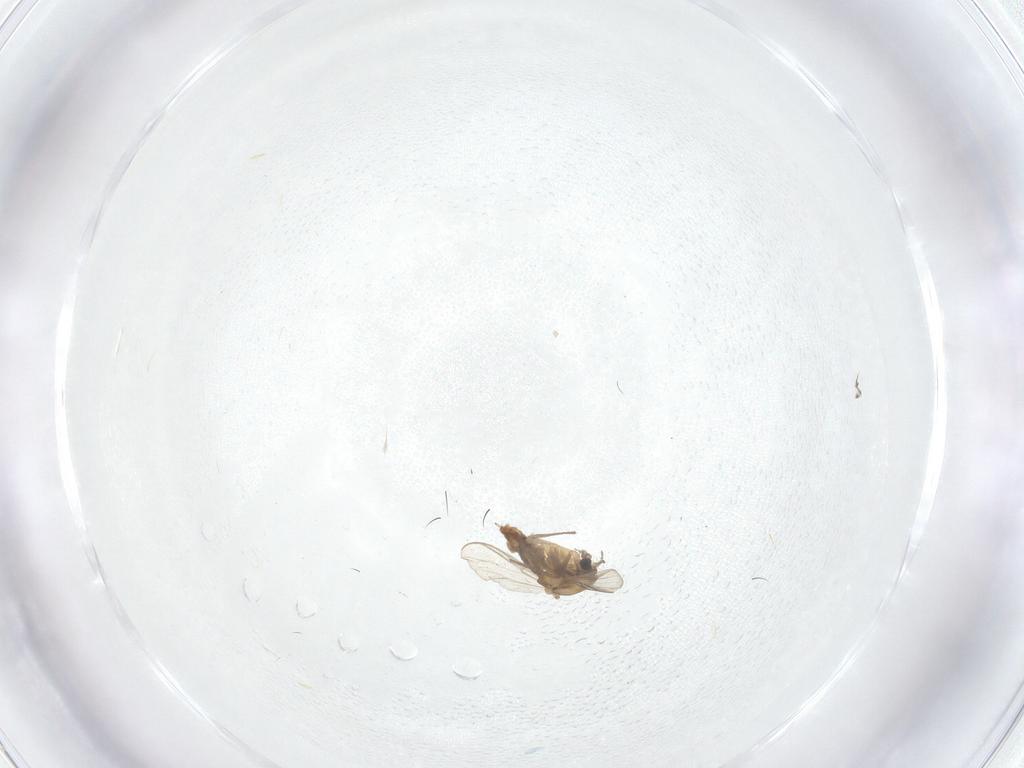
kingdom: Animalia
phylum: Arthropoda
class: Insecta
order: Diptera
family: Chironomidae
